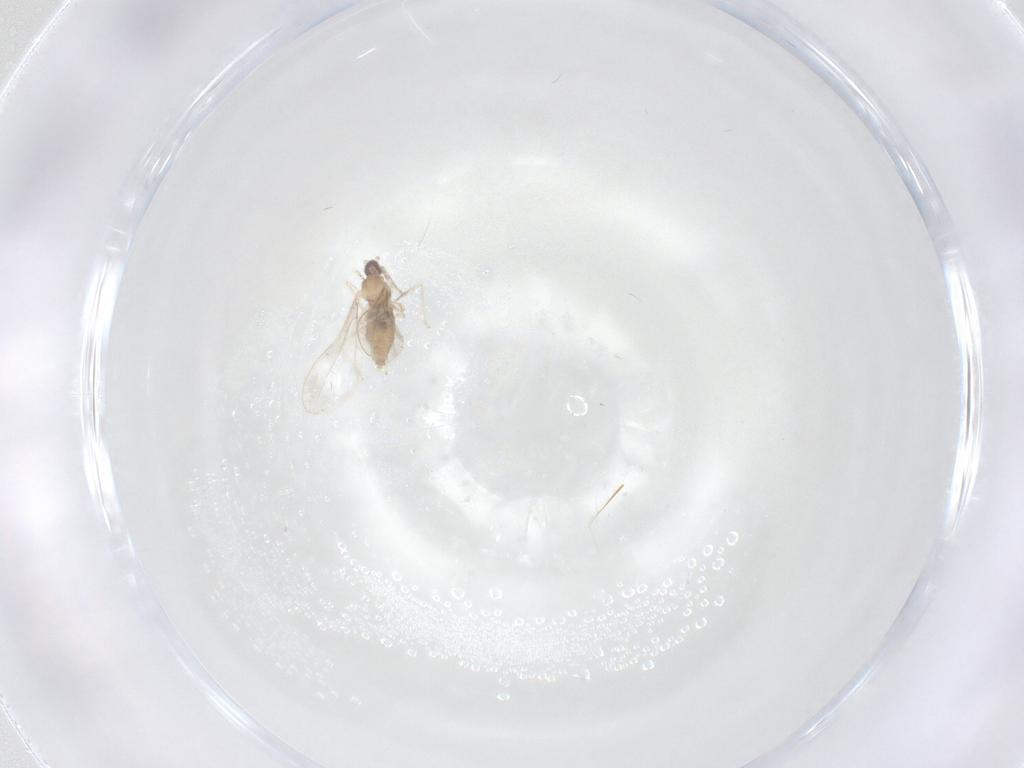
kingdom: Animalia
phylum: Arthropoda
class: Insecta
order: Diptera
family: Cecidomyiidae
